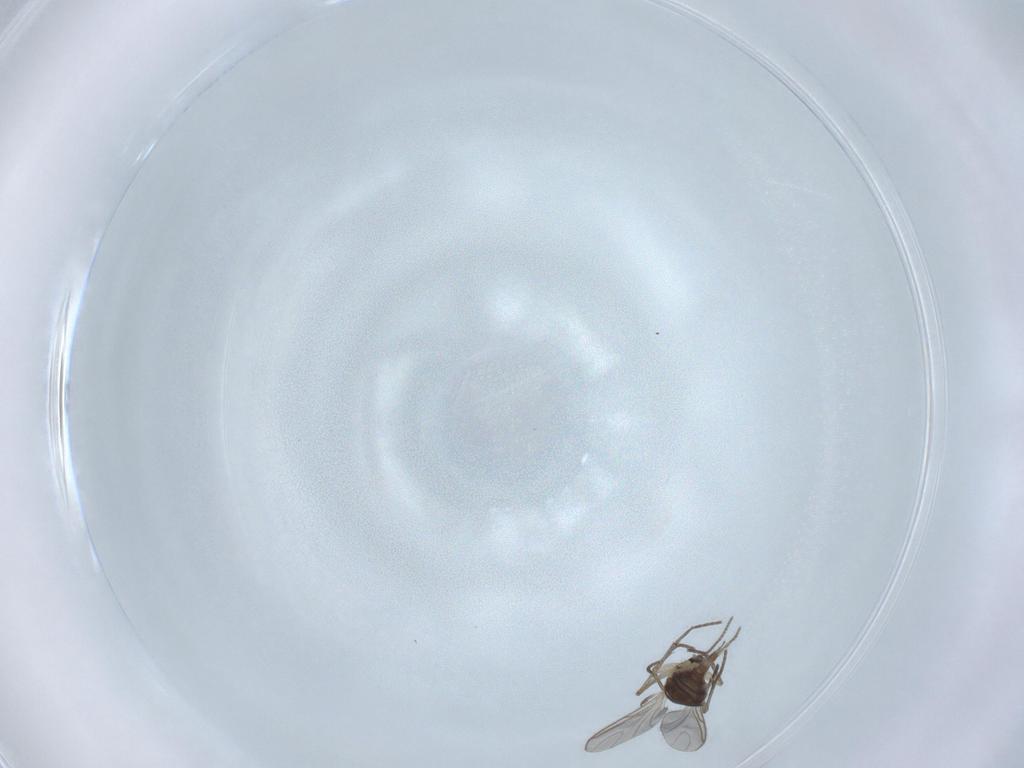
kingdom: Animalia
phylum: Arthropoda
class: Insecta
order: Diptera
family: Sciaridae
